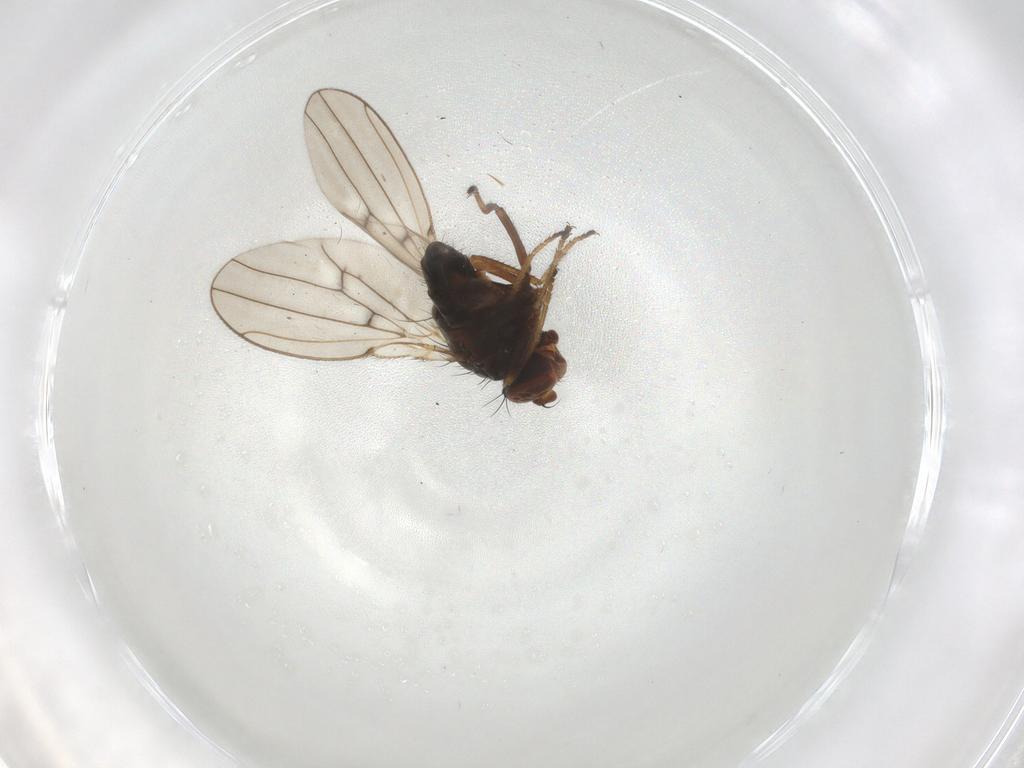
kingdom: Animalia
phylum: Arthropoda
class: Insecta
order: Diptera
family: Ephydridae
